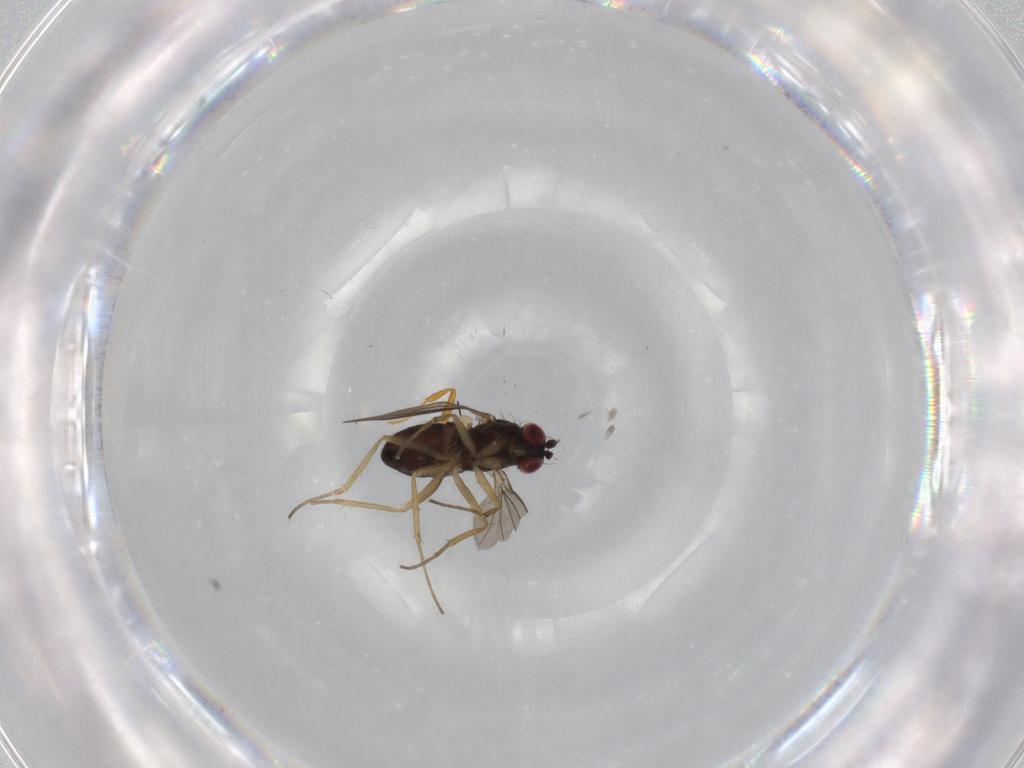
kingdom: Animalia
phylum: Arthropoda
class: Insecta
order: Diptera
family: Dolichopodidae
